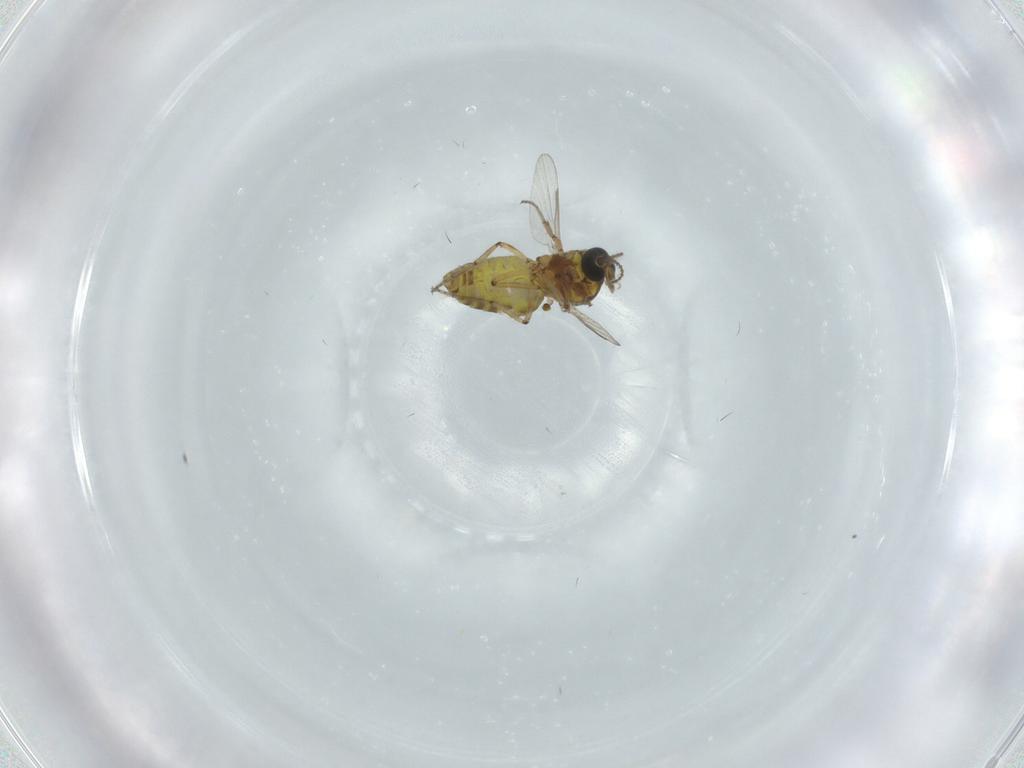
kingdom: Animalia
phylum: Arthropoda
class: Insecta
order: Diptera
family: Ceratopogonidae
